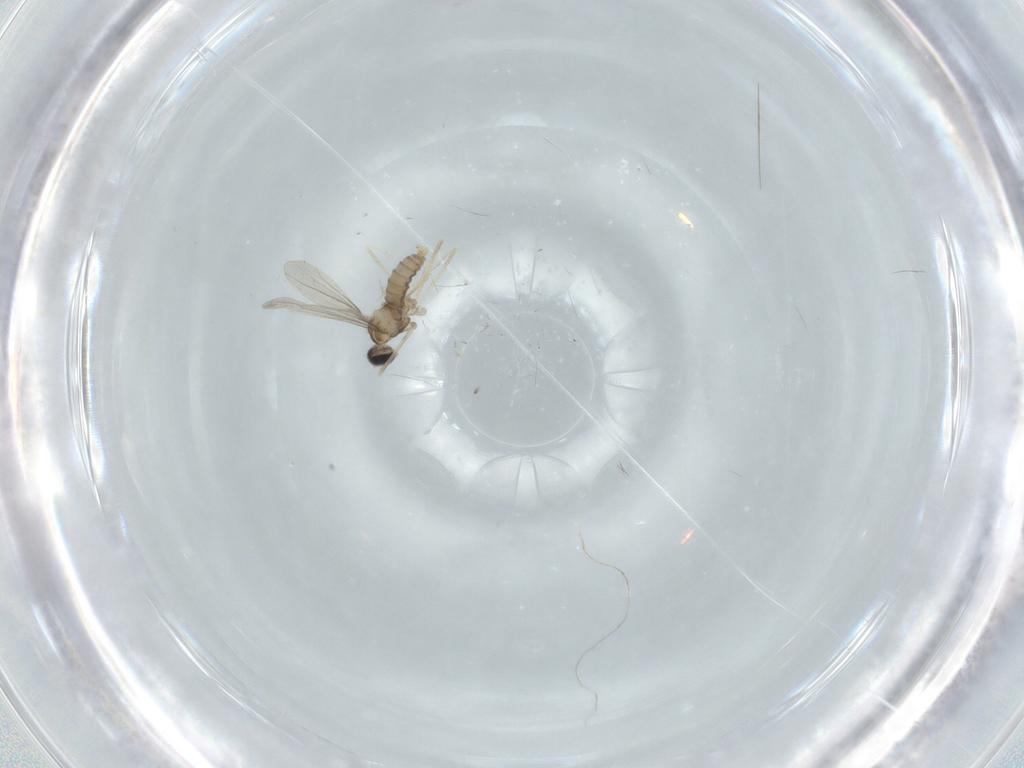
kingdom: Animalia
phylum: Arthropoda
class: Insecta
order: Diptera
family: Cecidomyiidae
